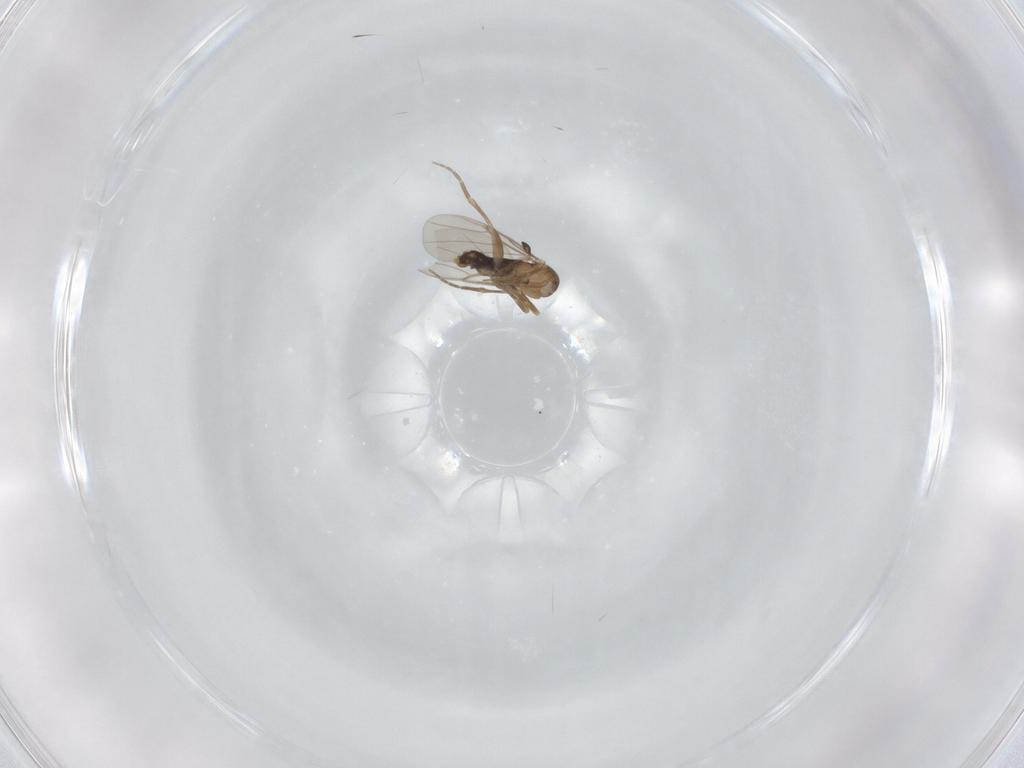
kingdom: Animalia
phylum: Arthropoda
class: Insecta
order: Diptera
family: Phoridae
